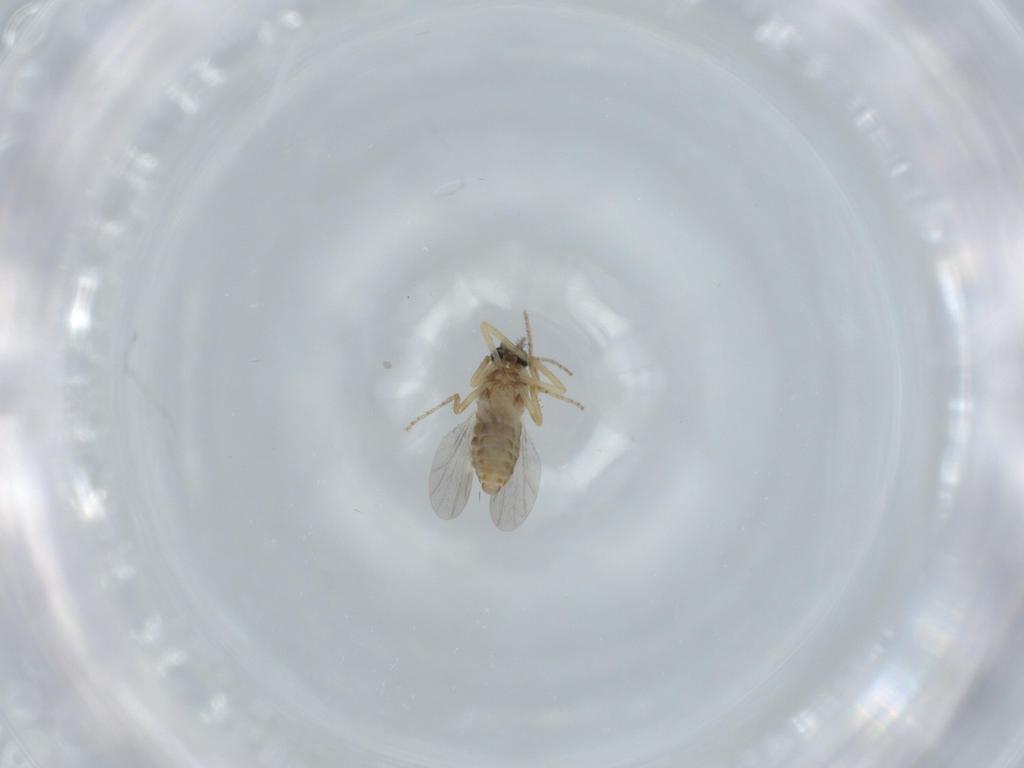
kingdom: Animalia
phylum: Arthropoda
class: Insecta
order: Diptera
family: Ceratopogonidae
